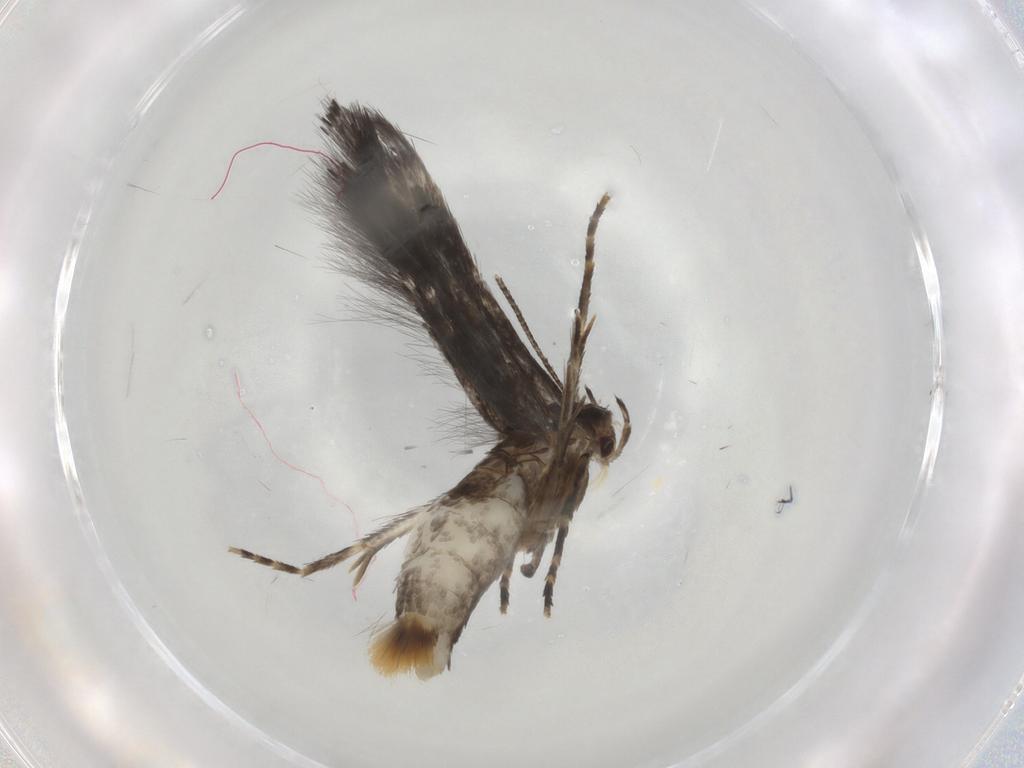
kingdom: Animalia
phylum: Arthropoda
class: Insecta
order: Lepidoptera
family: Elachistidae
